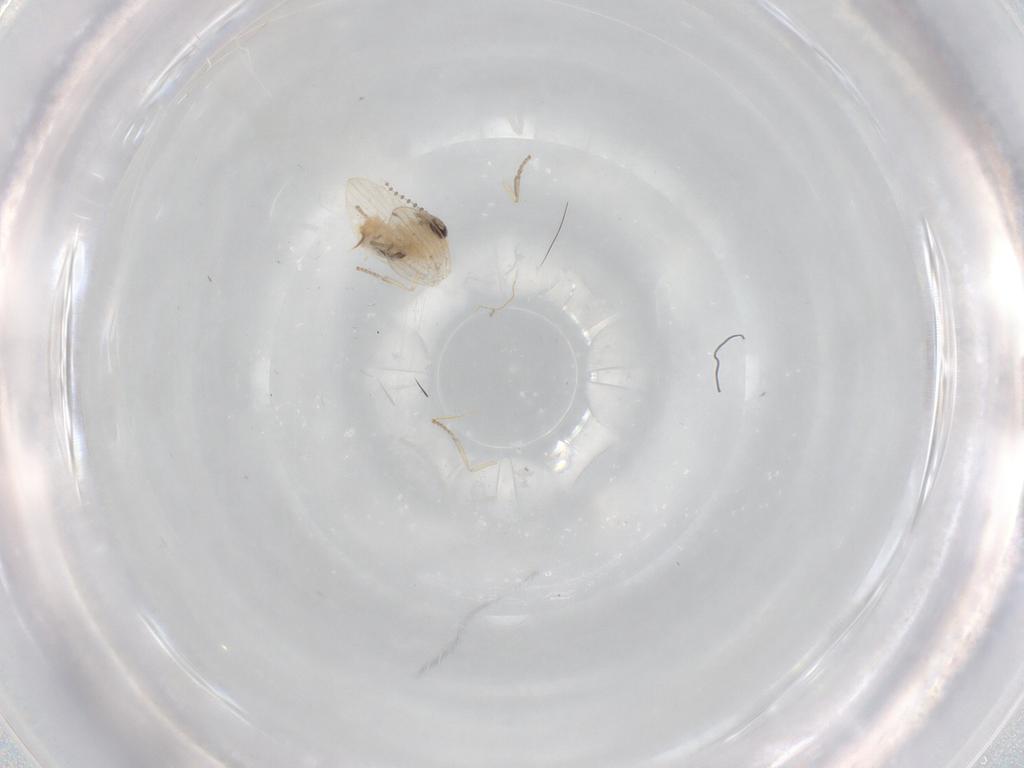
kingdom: Animalia
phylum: Arthropoda
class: Insecta
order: Diptera
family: Psychodidae
